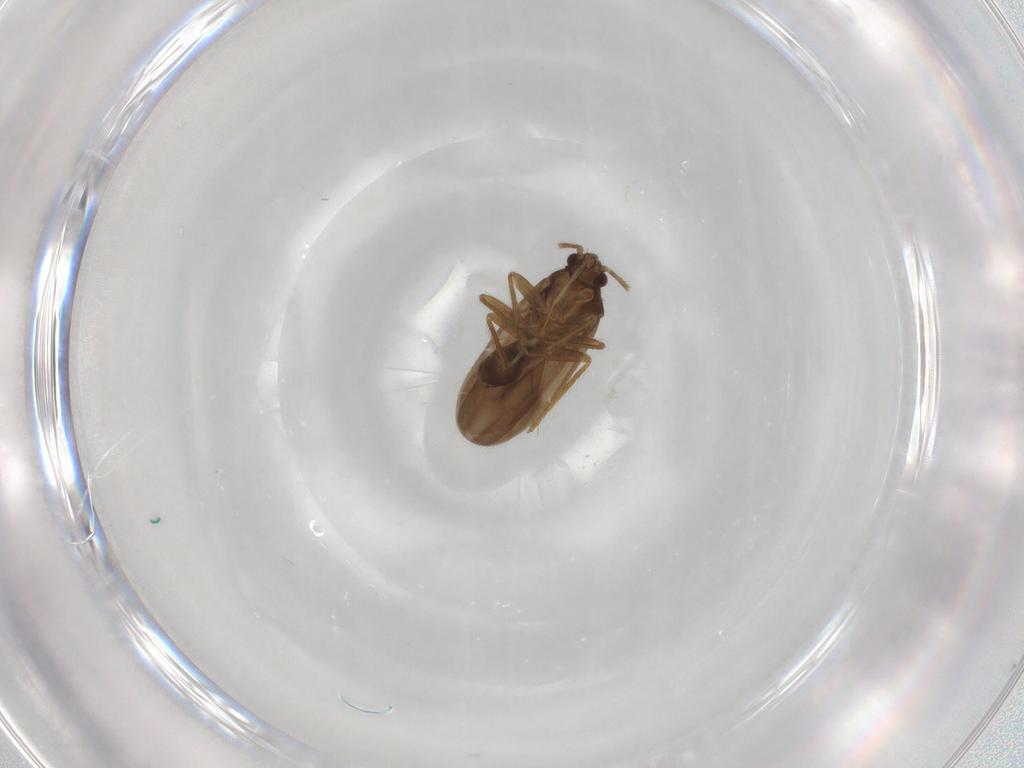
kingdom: Animalia
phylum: Arthropoda
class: Insecta
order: Hemiptera
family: Ceratocombidae
